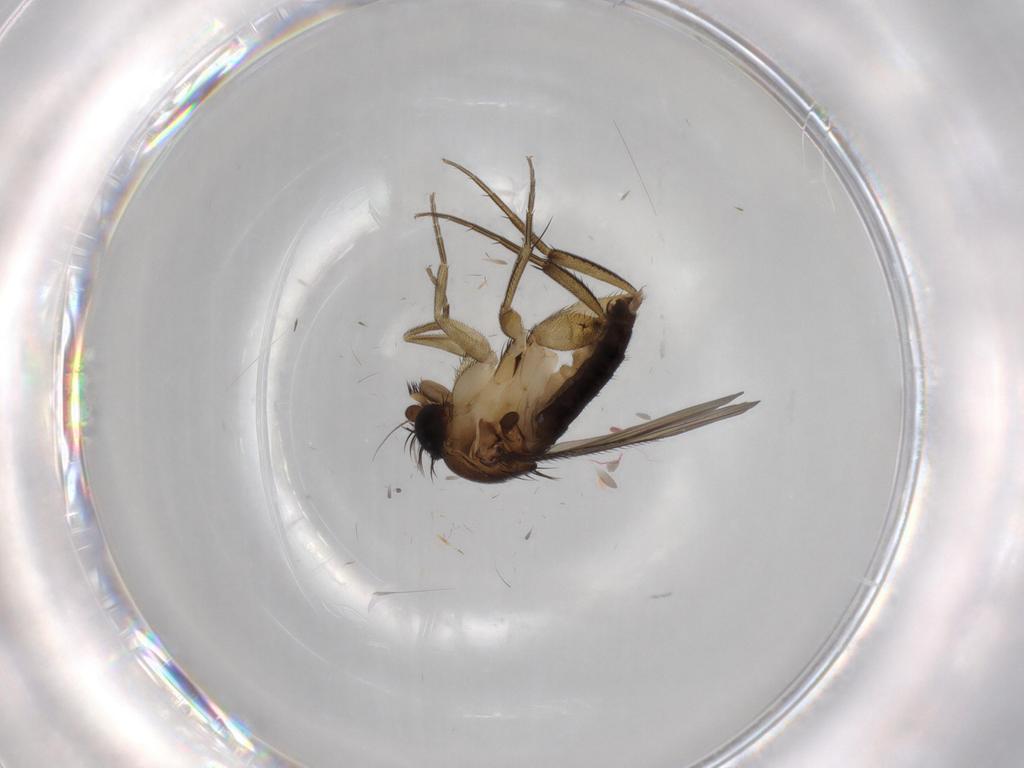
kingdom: Animalia
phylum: Arthropoda
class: Insecta
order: Diptera
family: Phoridae
